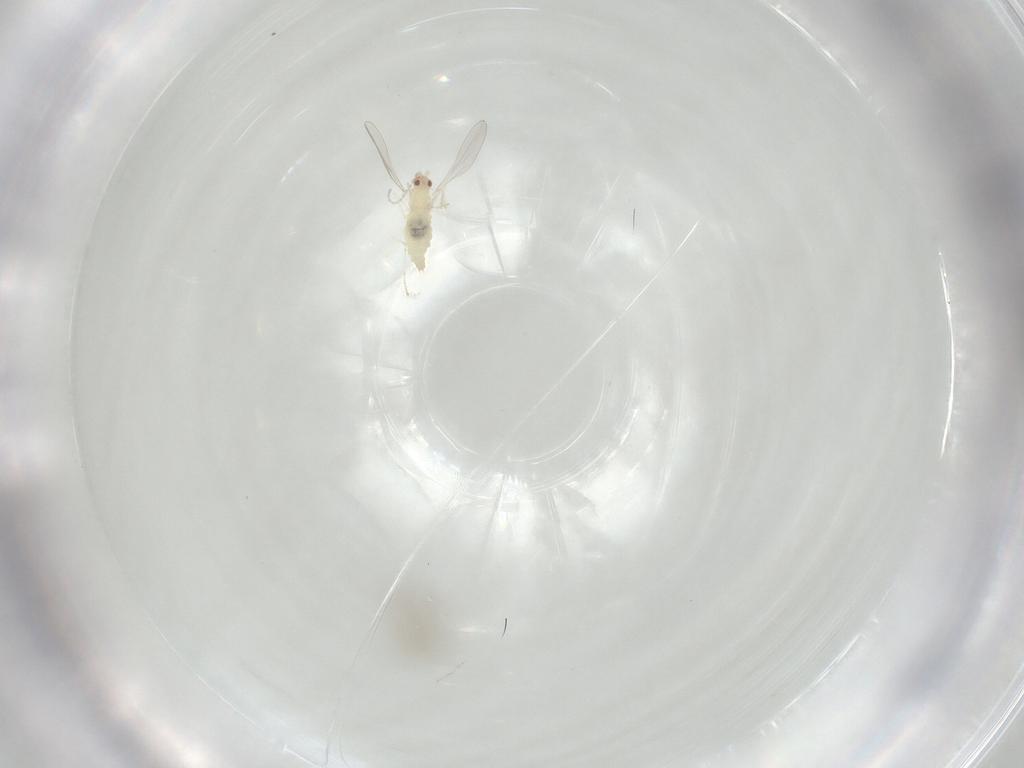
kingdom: Animalia
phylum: Arthropoda
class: Insecta
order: Diptera
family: Cecidomyiidae
